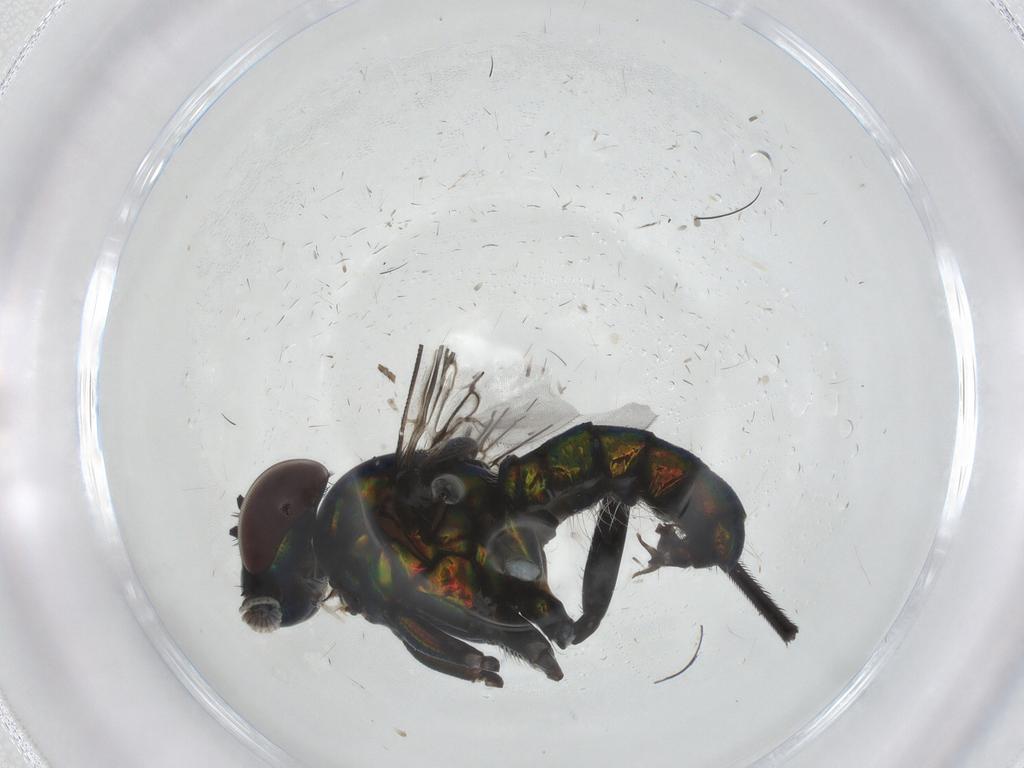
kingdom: Animalia
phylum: Arthropoda
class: Insecta
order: Diptera
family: Dolichopodidae
